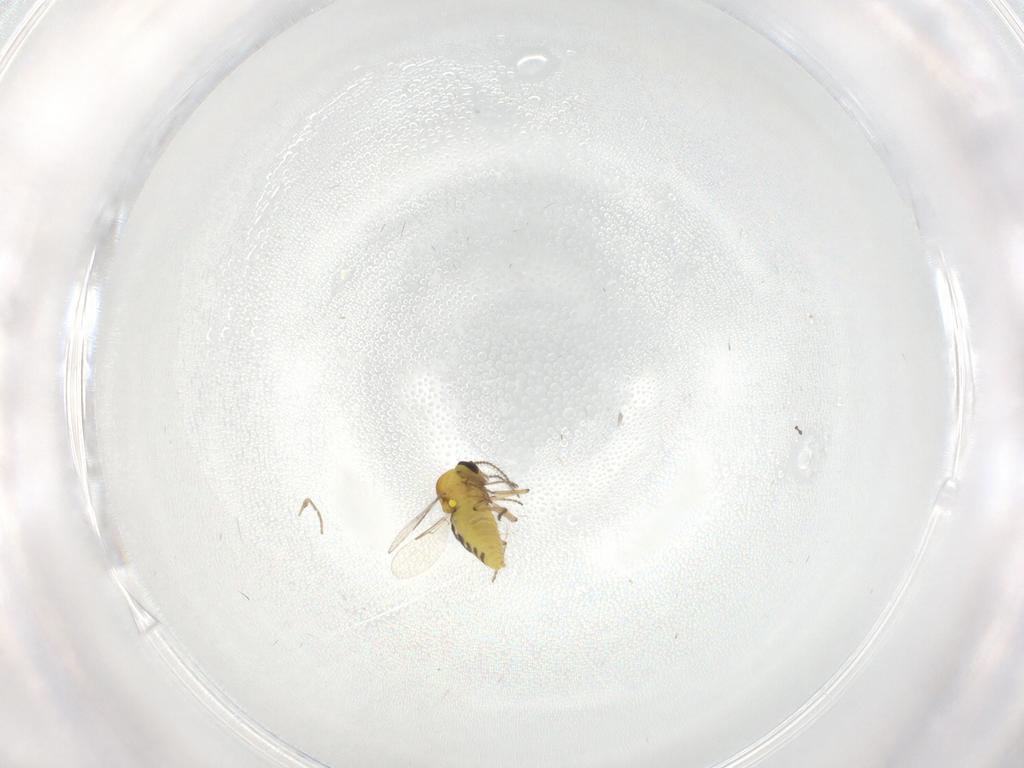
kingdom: Animalia
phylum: Arthropoda
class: Insecta
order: Diptera
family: Ceratopogonidae
